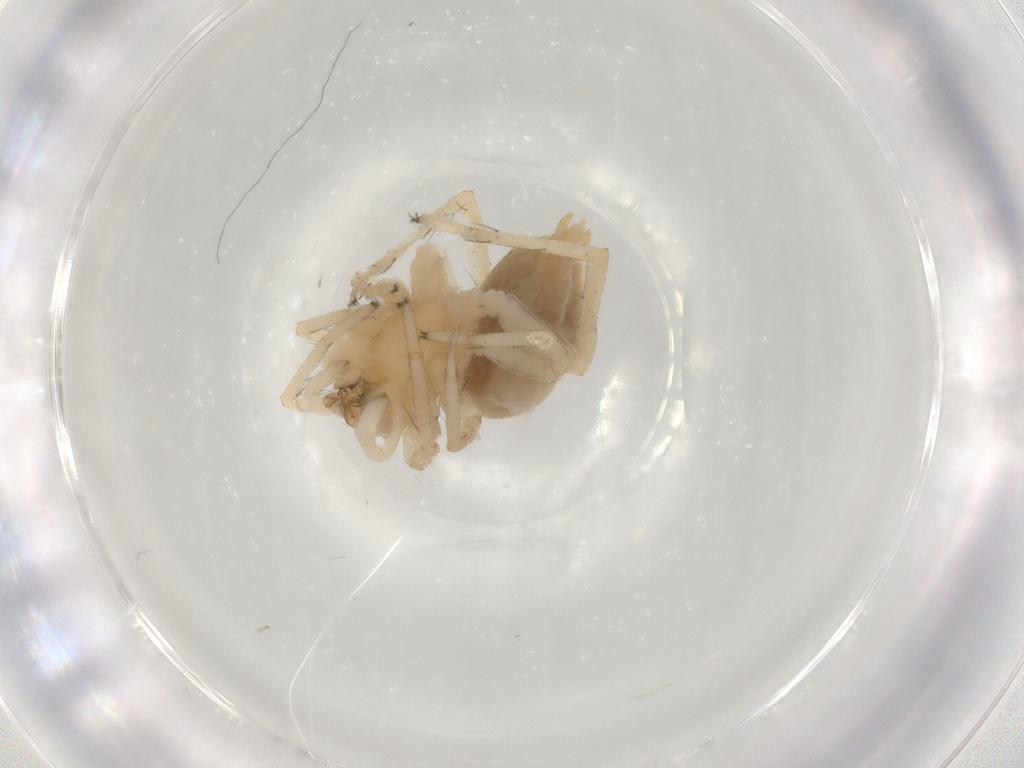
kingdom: Animalia
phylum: Arthropoda
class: Arachnida
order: Araneae
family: Anyphaenidae
